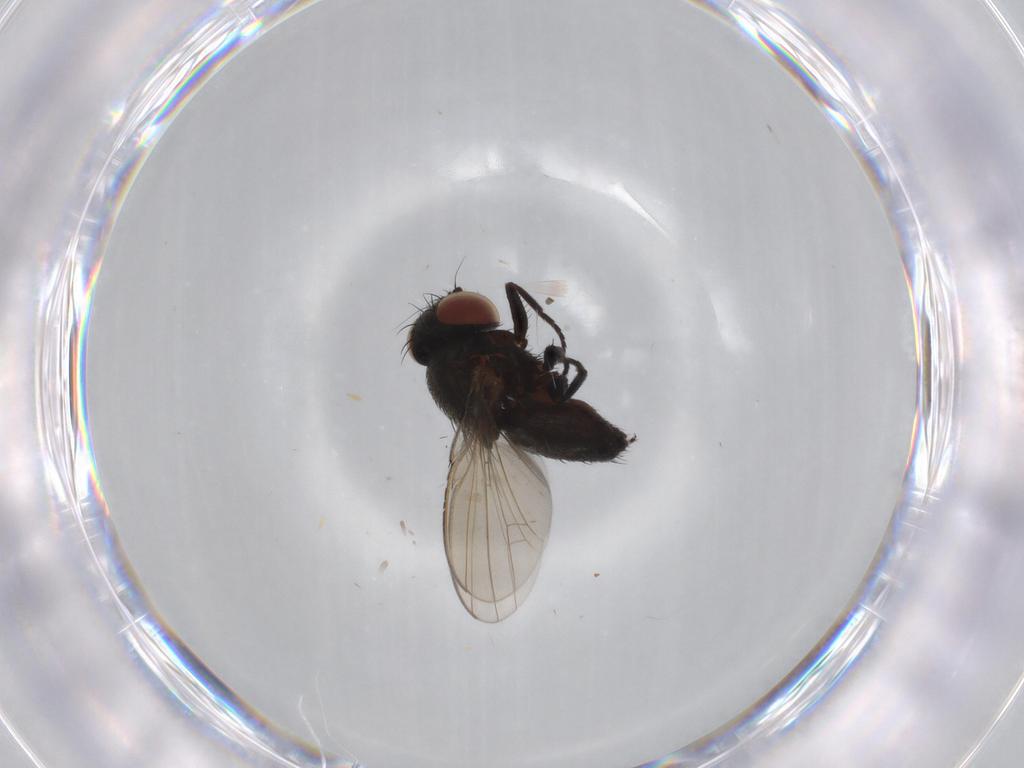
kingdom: Animalia
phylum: Arthropoda
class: Insecta
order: Diptera
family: Milichiidae
